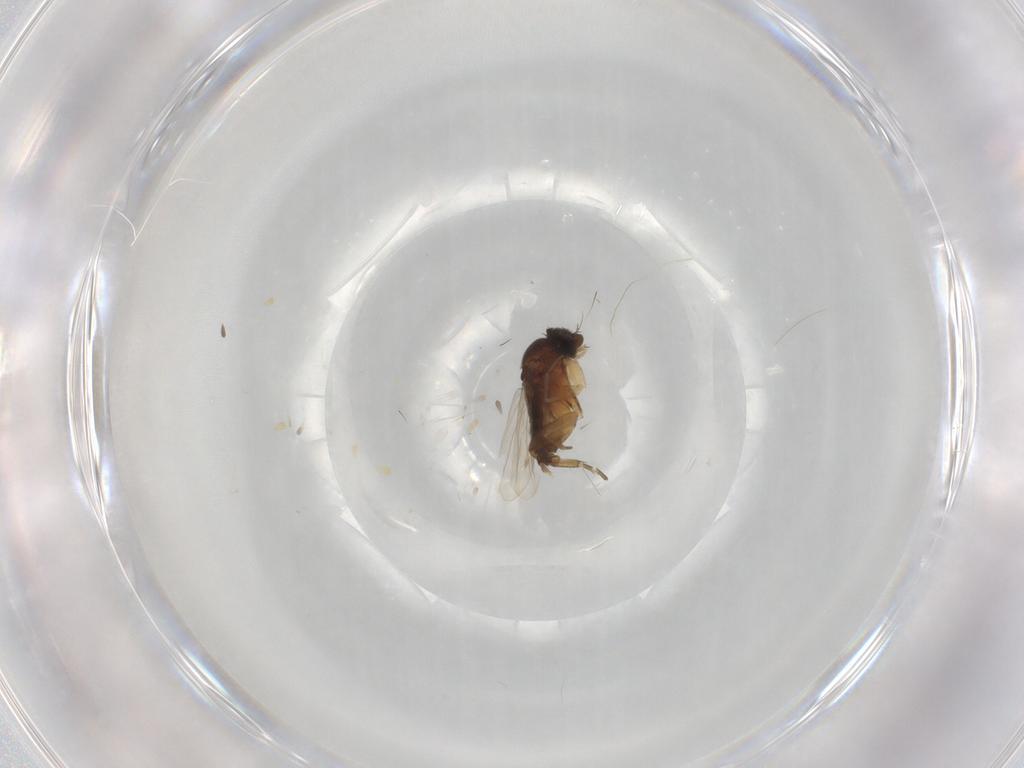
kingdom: Animalia
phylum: Arthropoda
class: Insecta
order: Diptera
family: Phoridae
